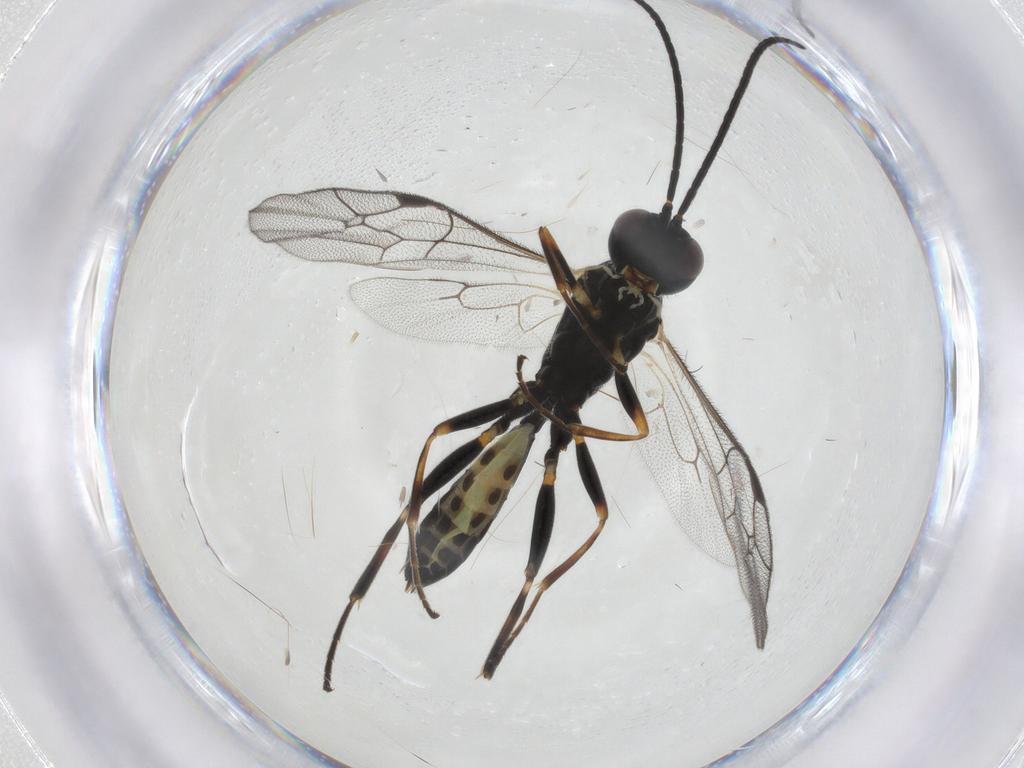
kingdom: Animalia
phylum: Arthropoda
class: Insecta
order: Hymenoptera
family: Ichneumonidae
